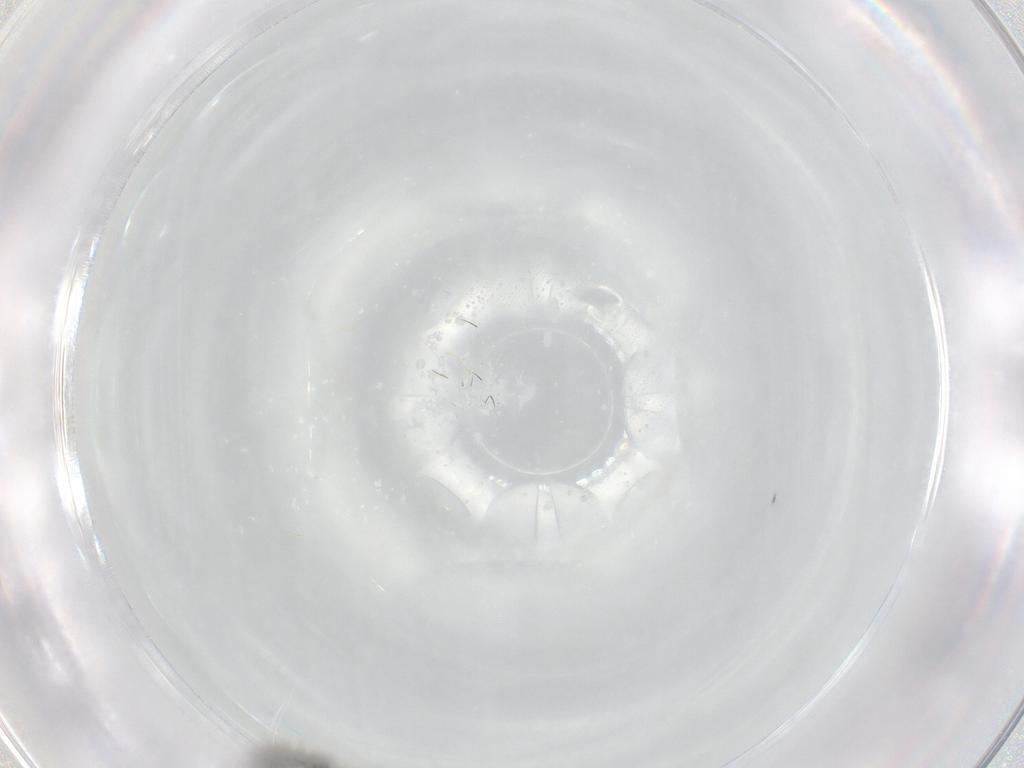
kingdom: Animalia
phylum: Arthropoda
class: Insecta
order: Diptera
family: Sciaridae
